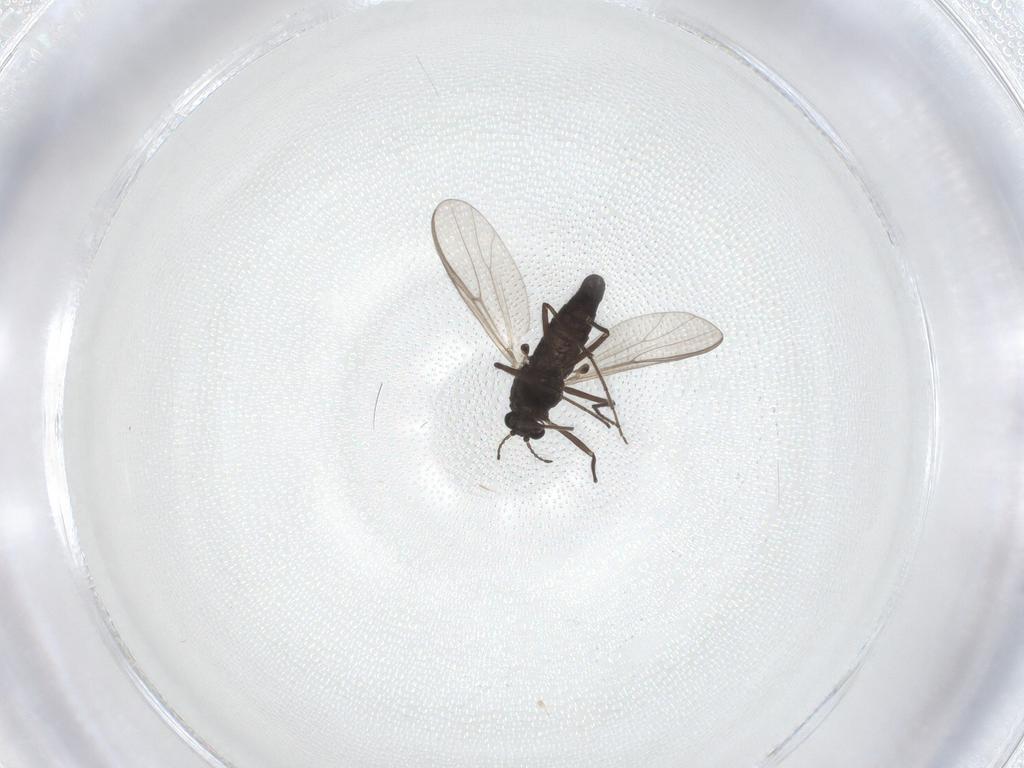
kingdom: Animalia
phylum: Arthropoda
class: Insecta
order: Diptera
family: Chironomidae
